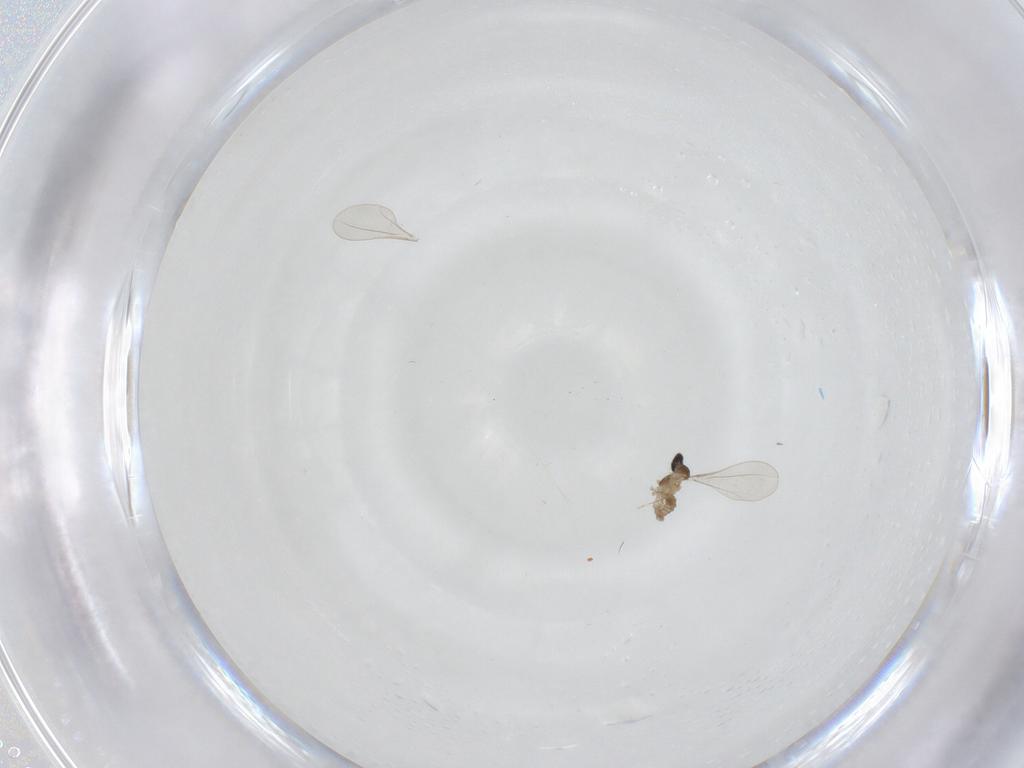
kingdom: Animalia
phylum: Arthropoda
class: Insecta
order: Diptera
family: Cecidomyiidae
